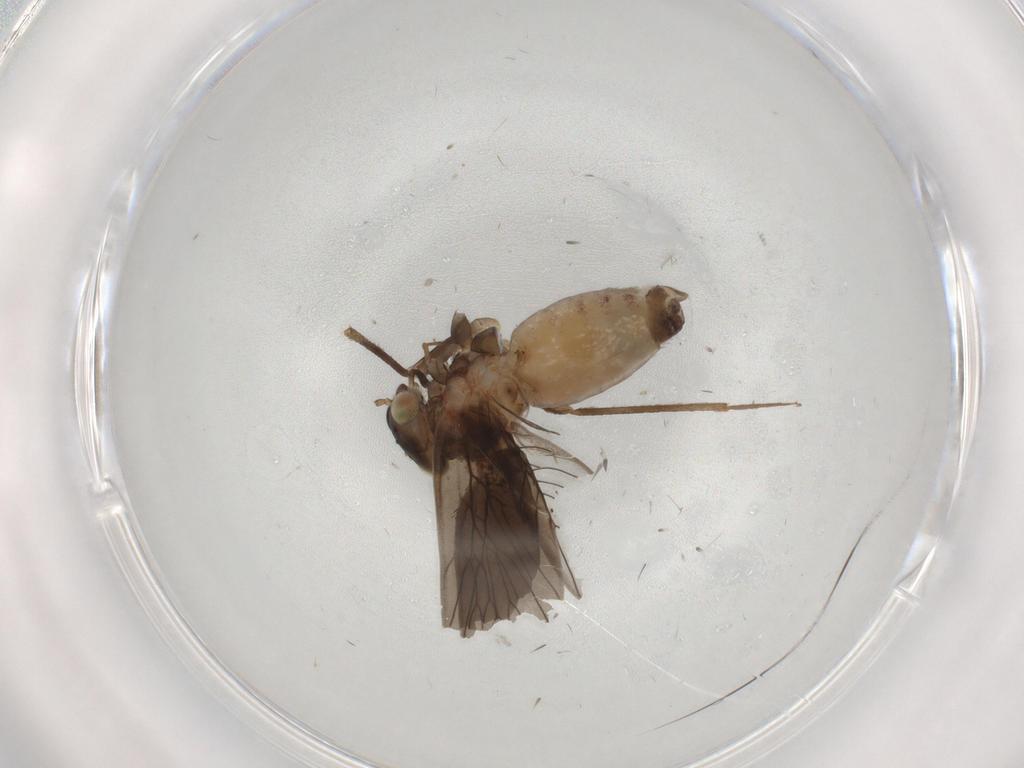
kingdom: Animalia
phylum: Arthropoda
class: Insecta
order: Psocodea
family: Lepidopsocidae
